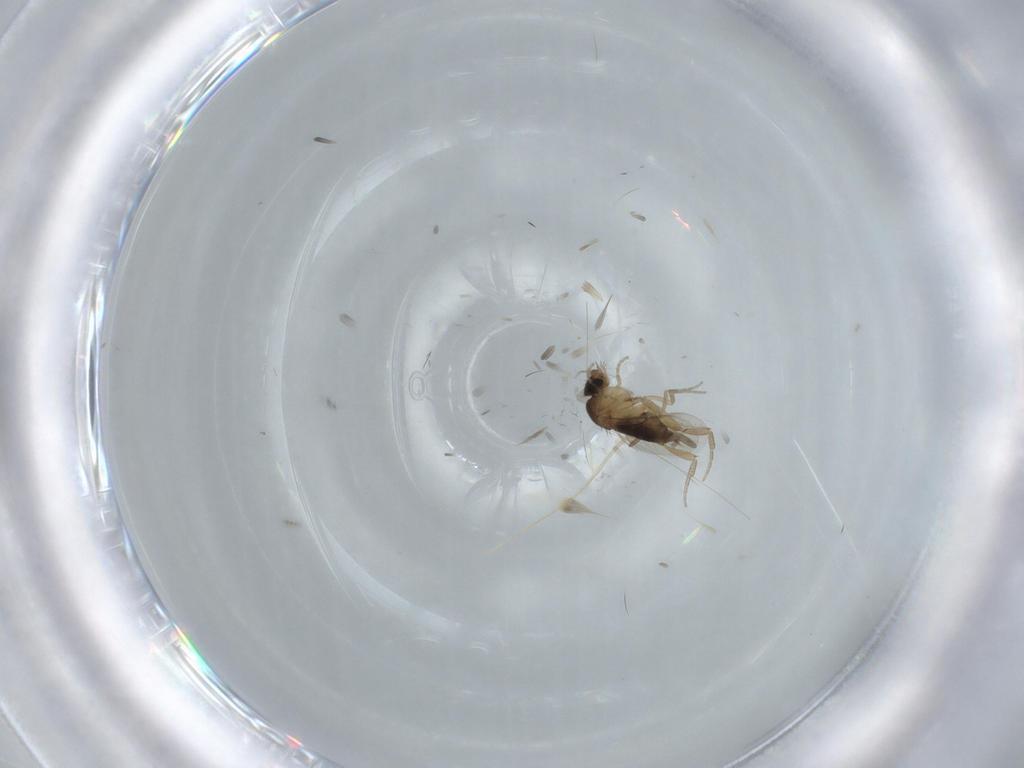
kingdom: Animalia
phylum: Arthropoda
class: Insecta
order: Diptera
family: Phoridae
